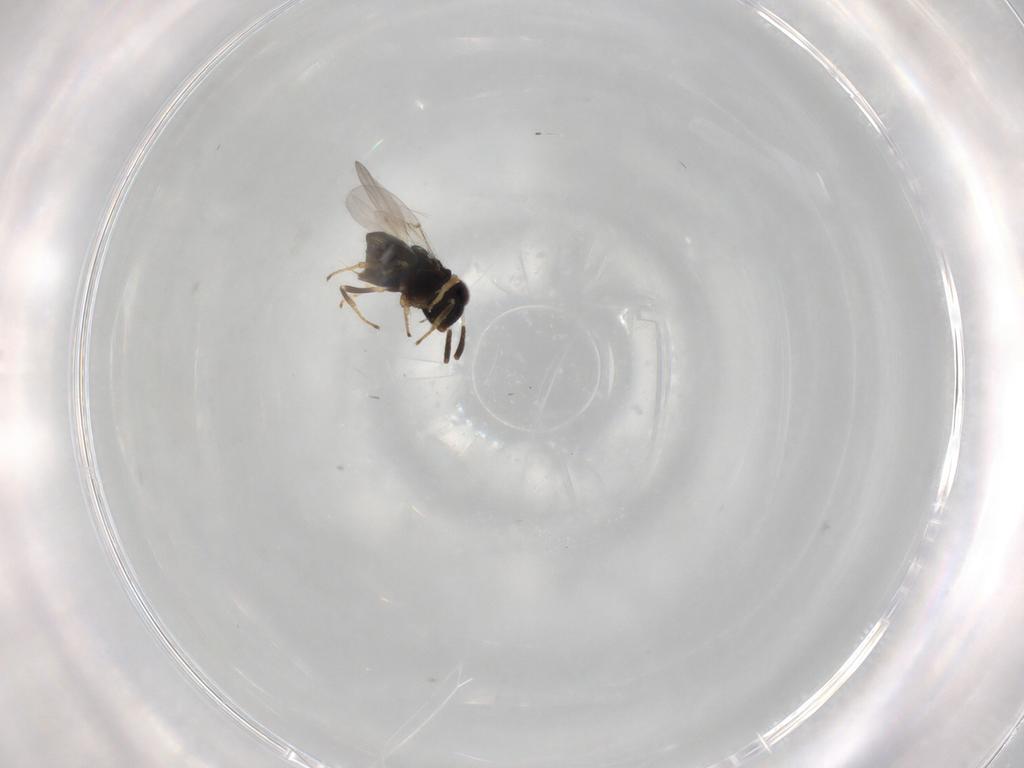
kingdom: Animalia
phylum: Arthropoda
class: Insecta
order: Hymenoptera
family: Encyrtidae
